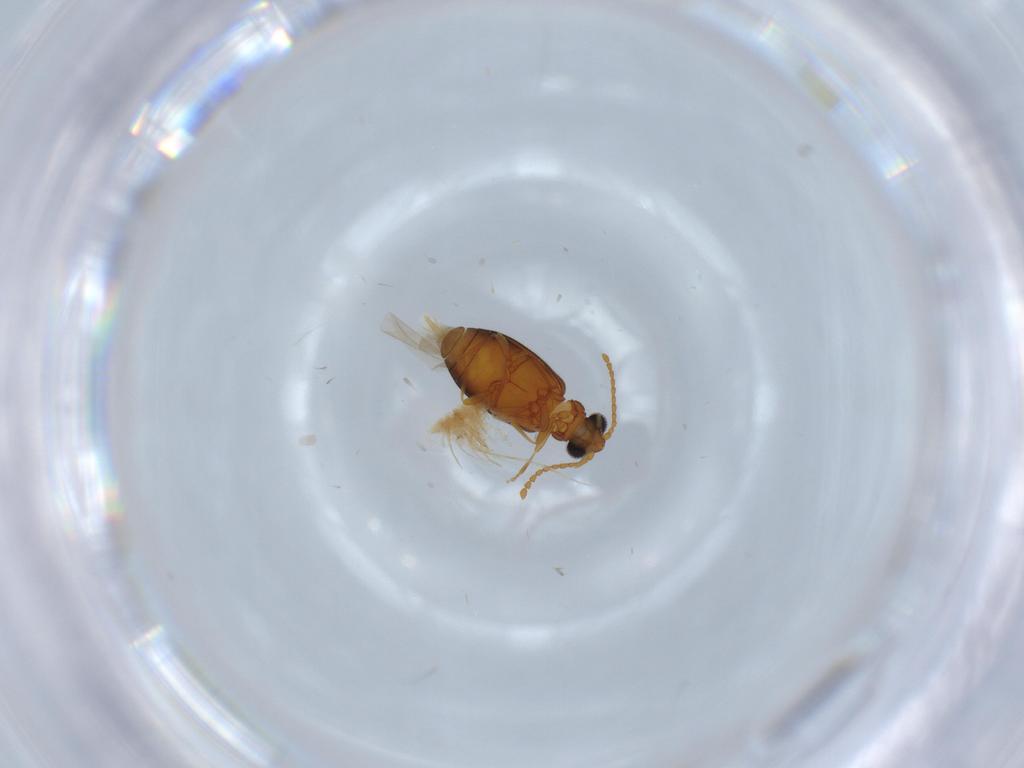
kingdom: Animalia
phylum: Arthropoda
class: Insecta
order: Coleoptera
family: Aderidae
